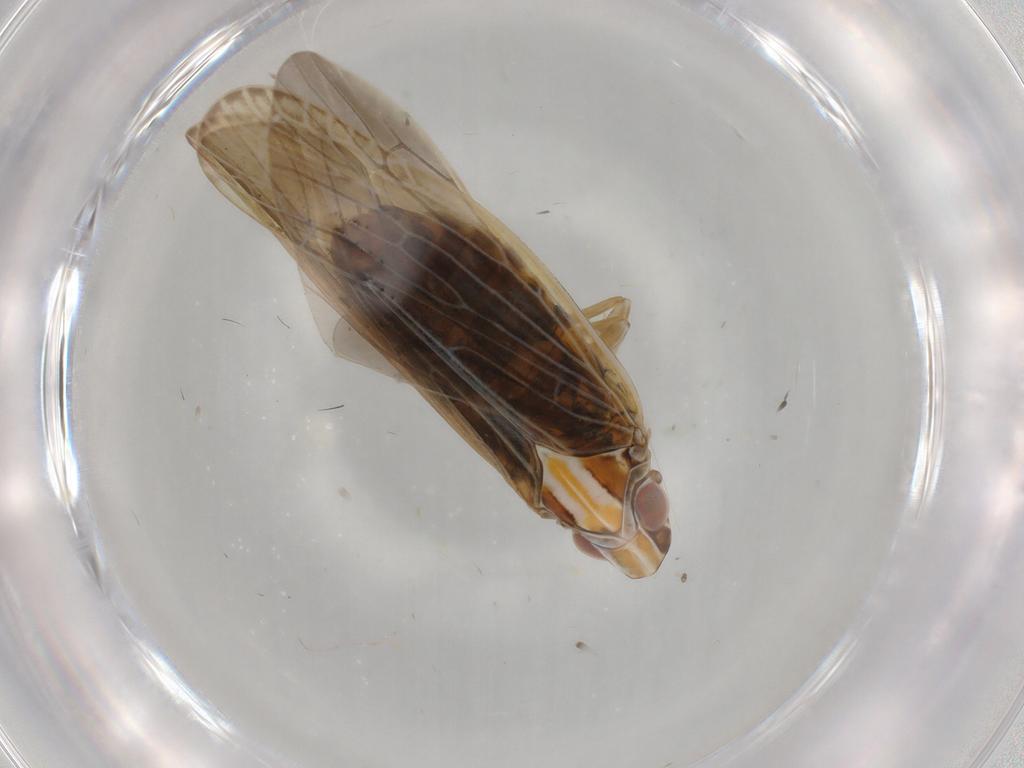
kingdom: Animalia
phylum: Arthropoda
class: Insecta
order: Hemiptera
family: Achilidae
